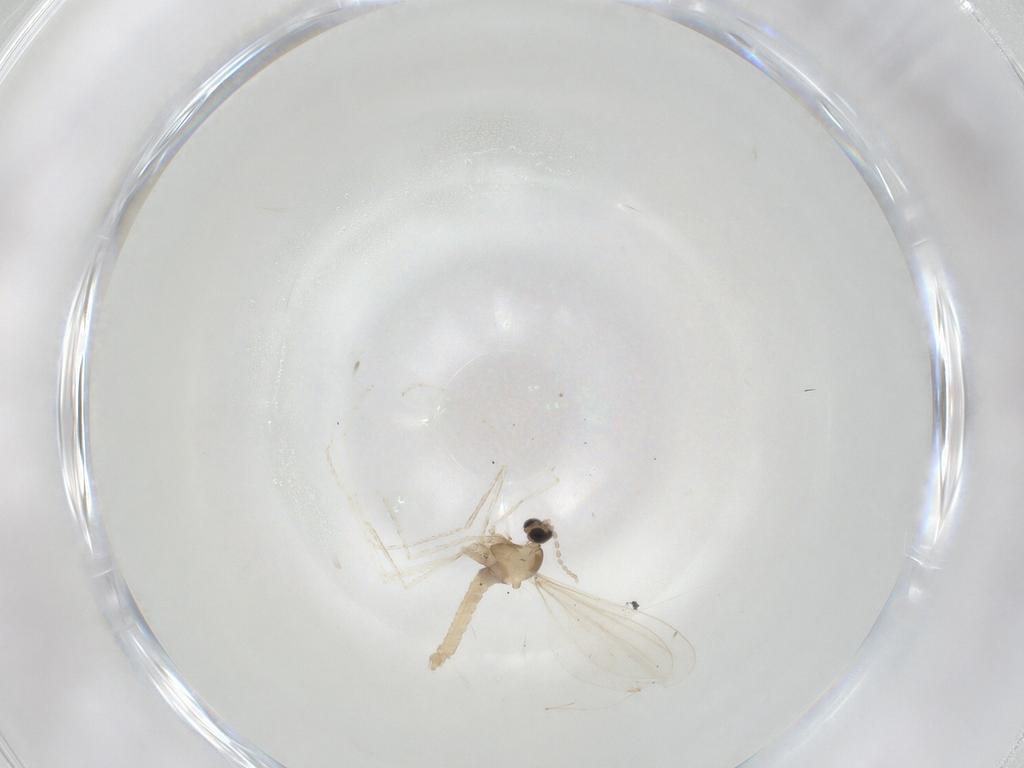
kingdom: Animalia
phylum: Arthropoda
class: Insecta
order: Diptera
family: Cecidomyiidae
